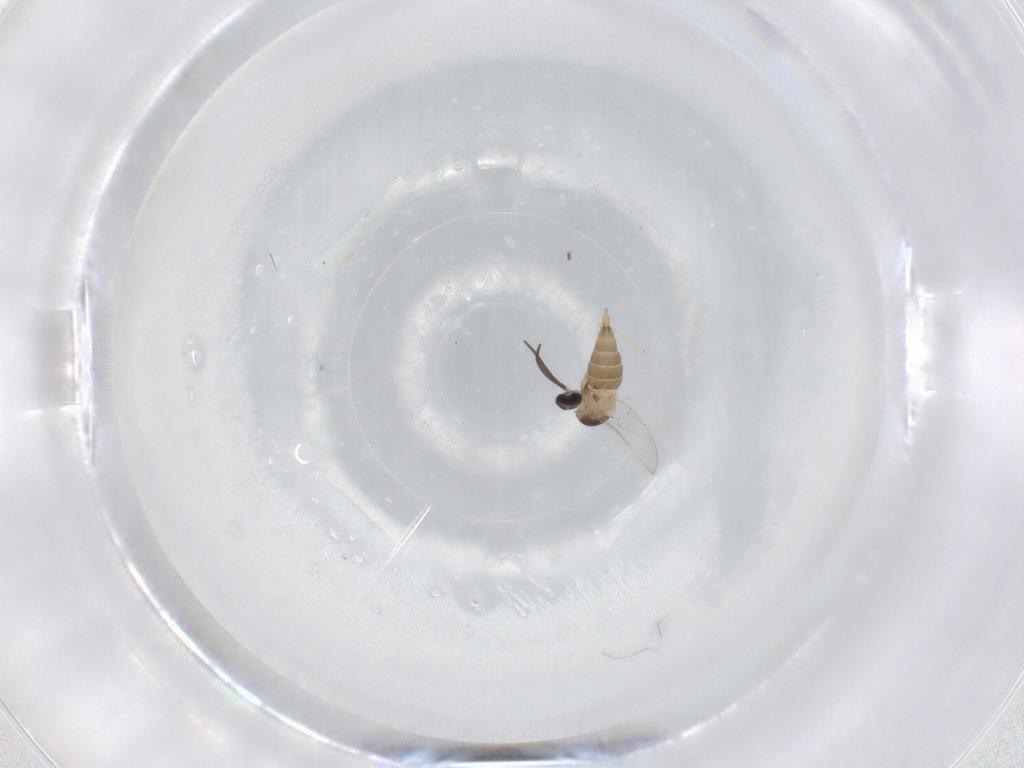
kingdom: Animalia
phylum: Arthropoda
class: Insecta
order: Diptera
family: Cecidomyiidae
